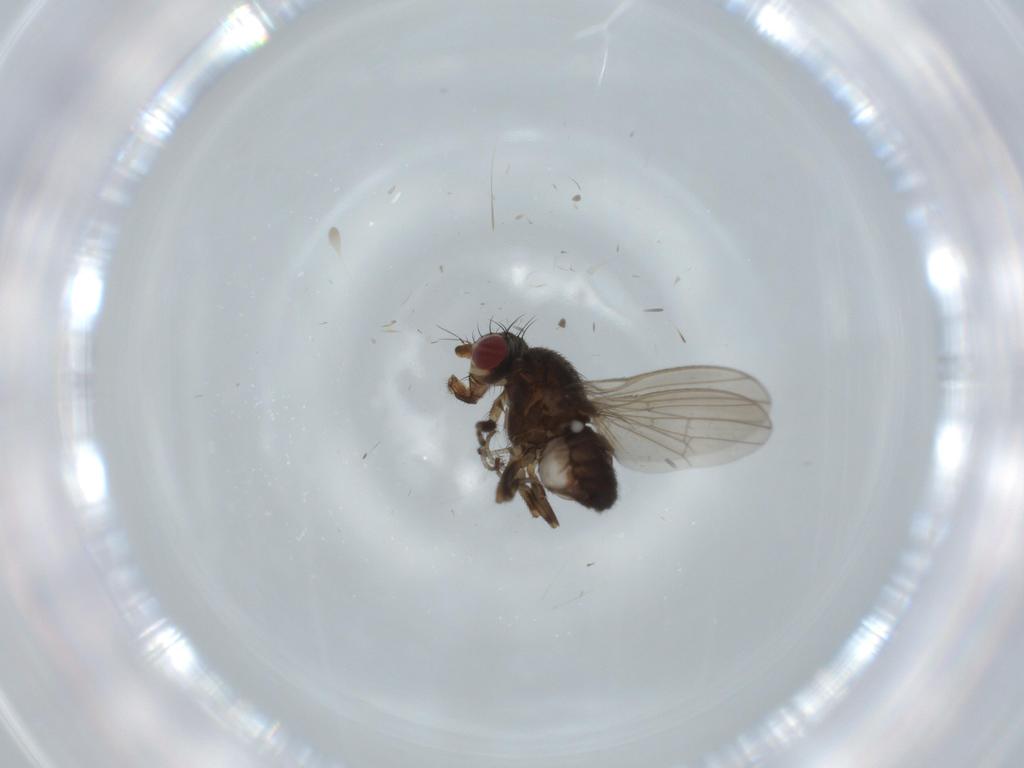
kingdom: Animalia
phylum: Arthropoda
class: Insecta
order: Diptera
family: Heleomyzidae
